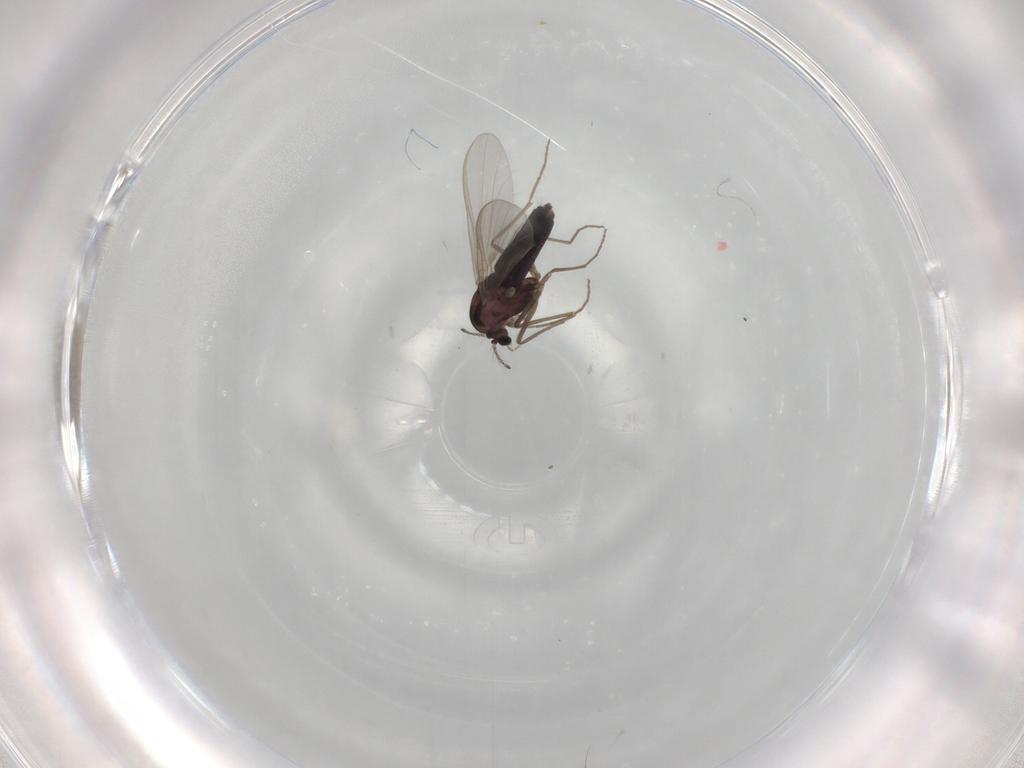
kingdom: Animalia
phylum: Arthropoda
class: Insecta
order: Diptera
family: Chironomidae
